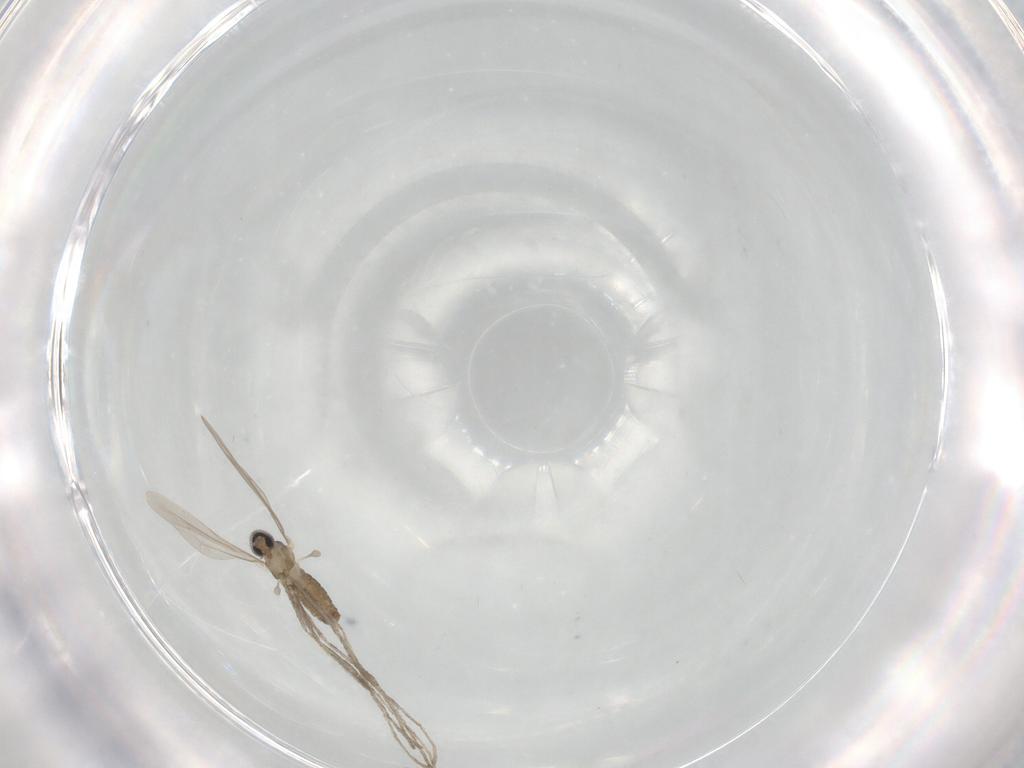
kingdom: Animalia
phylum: Arthropoda
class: Insecta
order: Diptera
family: Cecidomyiidae
